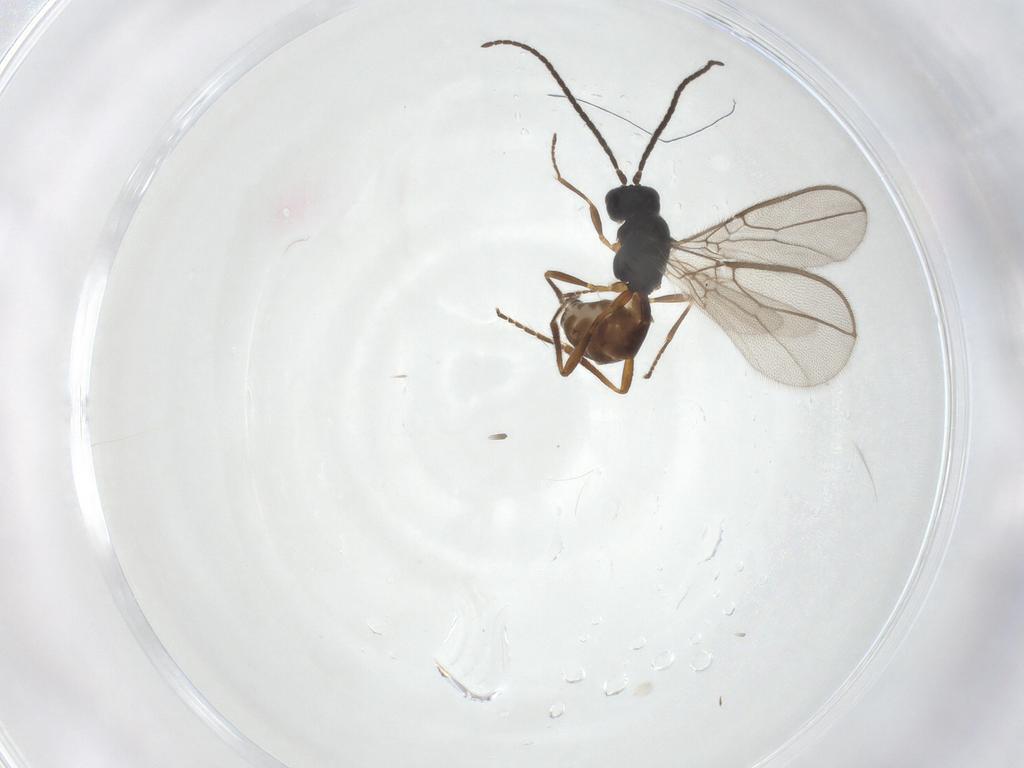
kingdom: Animalia
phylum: Arthropoda
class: Insecta
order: Hymenoptera
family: Braconidae
